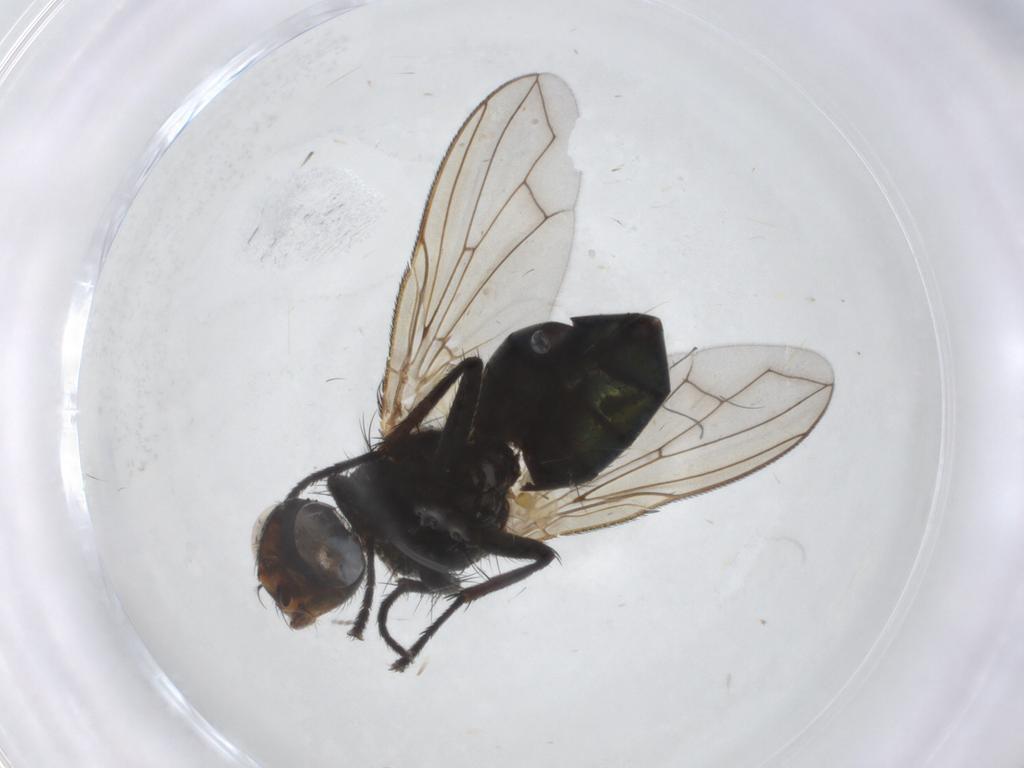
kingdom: Animalia
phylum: Arthropoda
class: Insecta
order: Diptera
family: Calliphoridae
